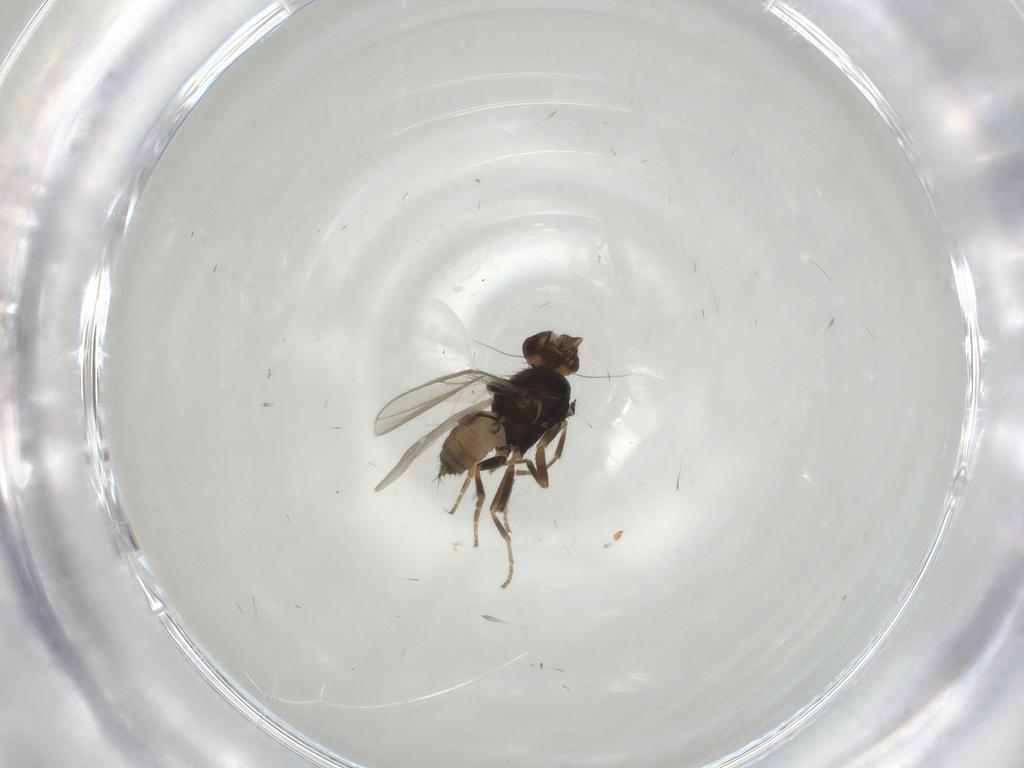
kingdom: Animalia
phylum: Arthropoda
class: Insecta
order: Diptera
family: Sphaeroceridae
